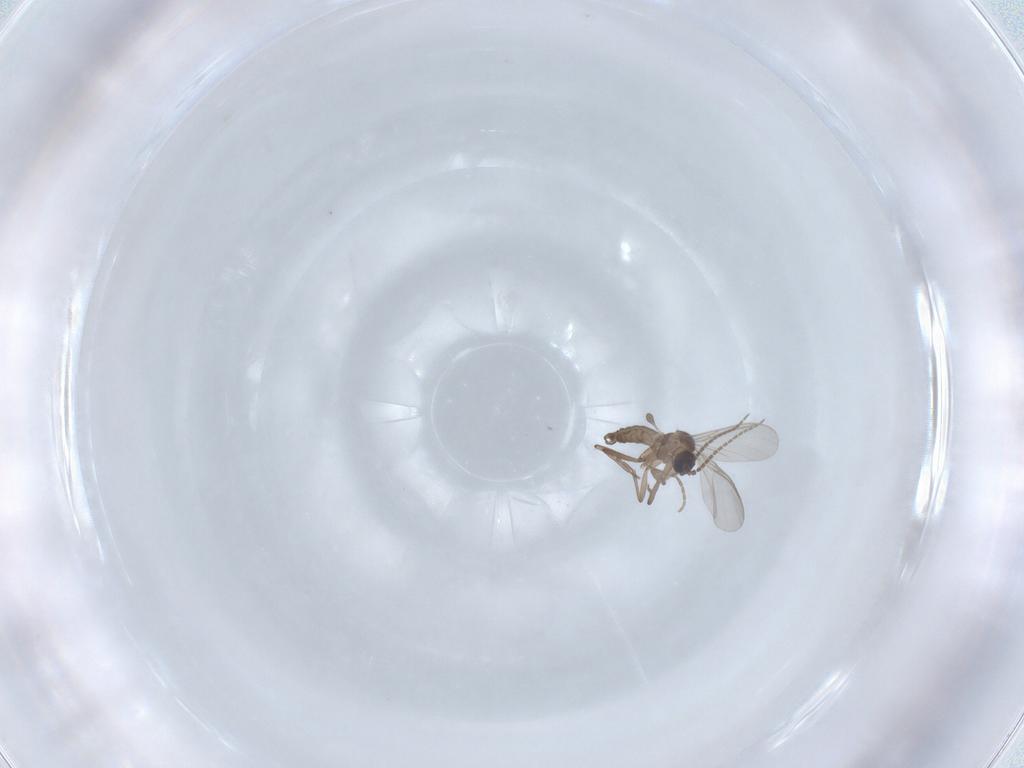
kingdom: Animalia
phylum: Arthropoda
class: Insecta
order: Diptera
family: Sciaridae
